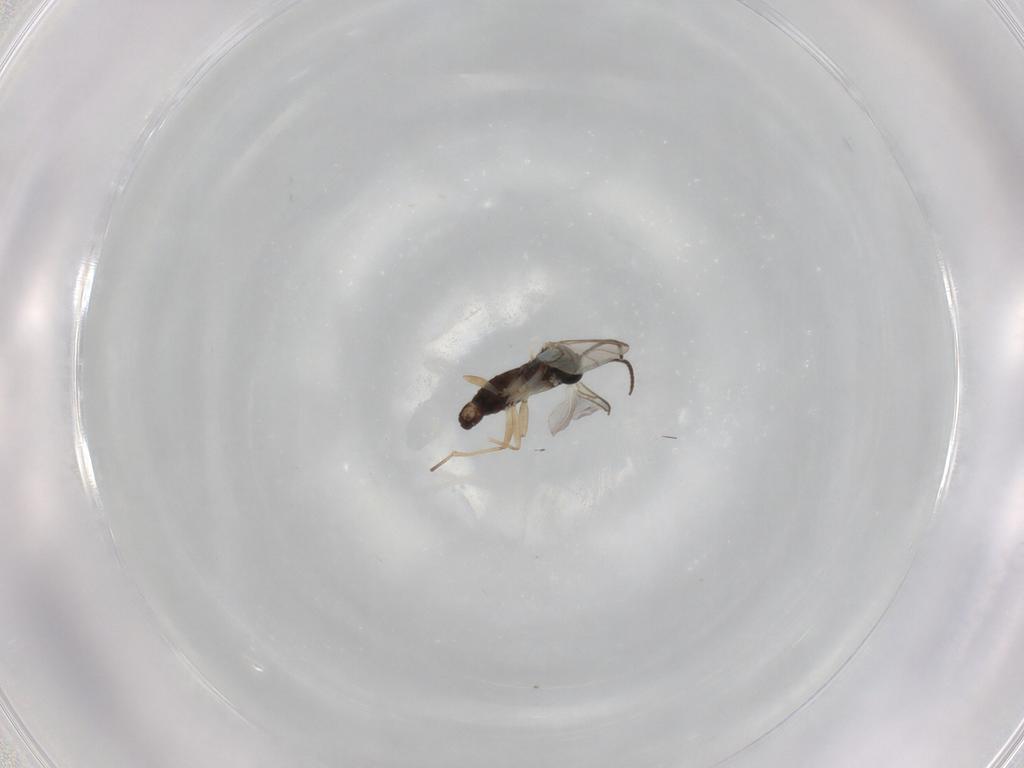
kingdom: Animalia
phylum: Arthropoda
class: Insecta
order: Diptera
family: Sciaridae
